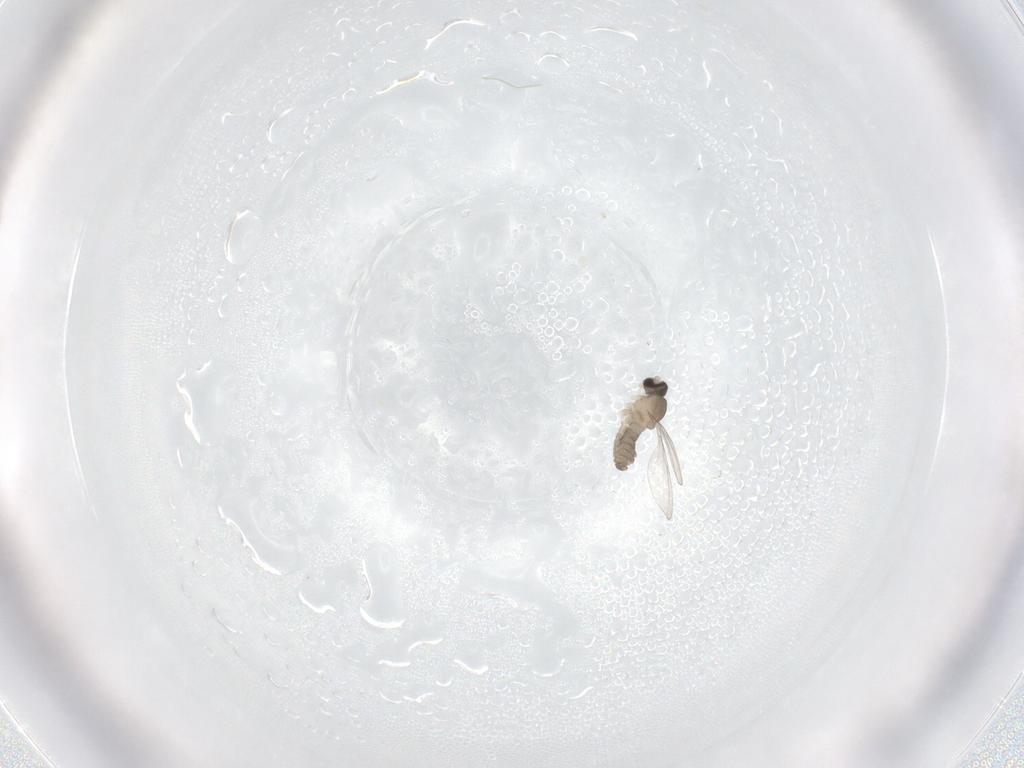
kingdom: Animalia
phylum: Arthropoda
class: Insecta
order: Diptera
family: Cecidomyiidae
